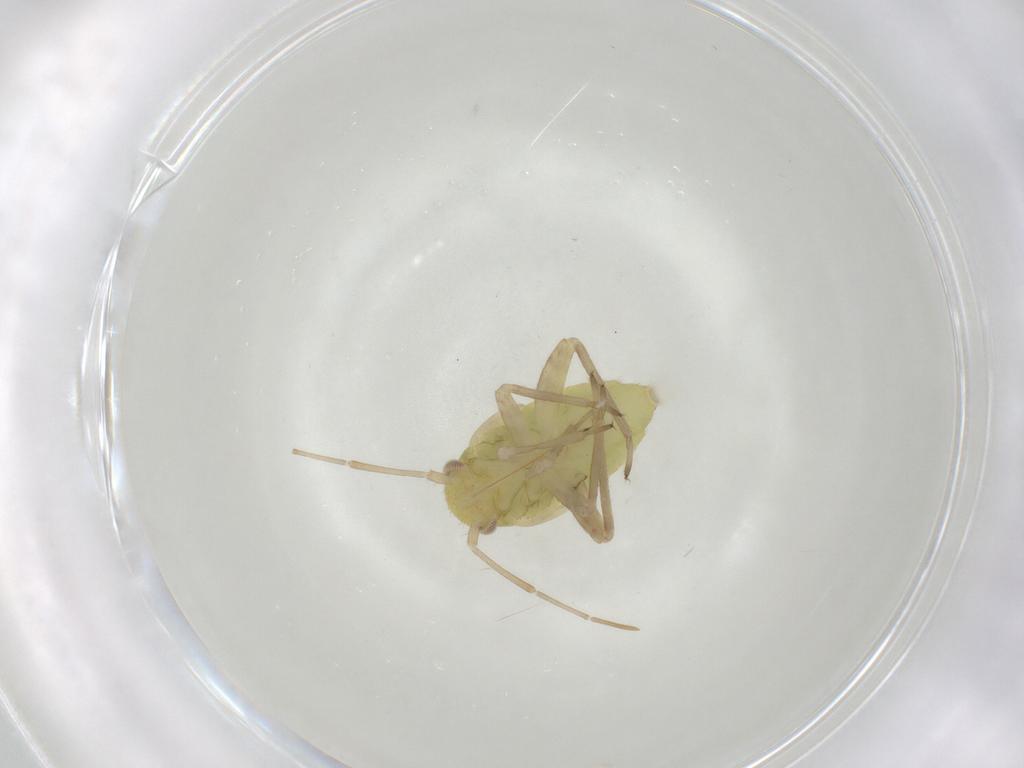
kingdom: Animalia
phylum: Arthropoda
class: Insecta
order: Hemiptera
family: Miridae
